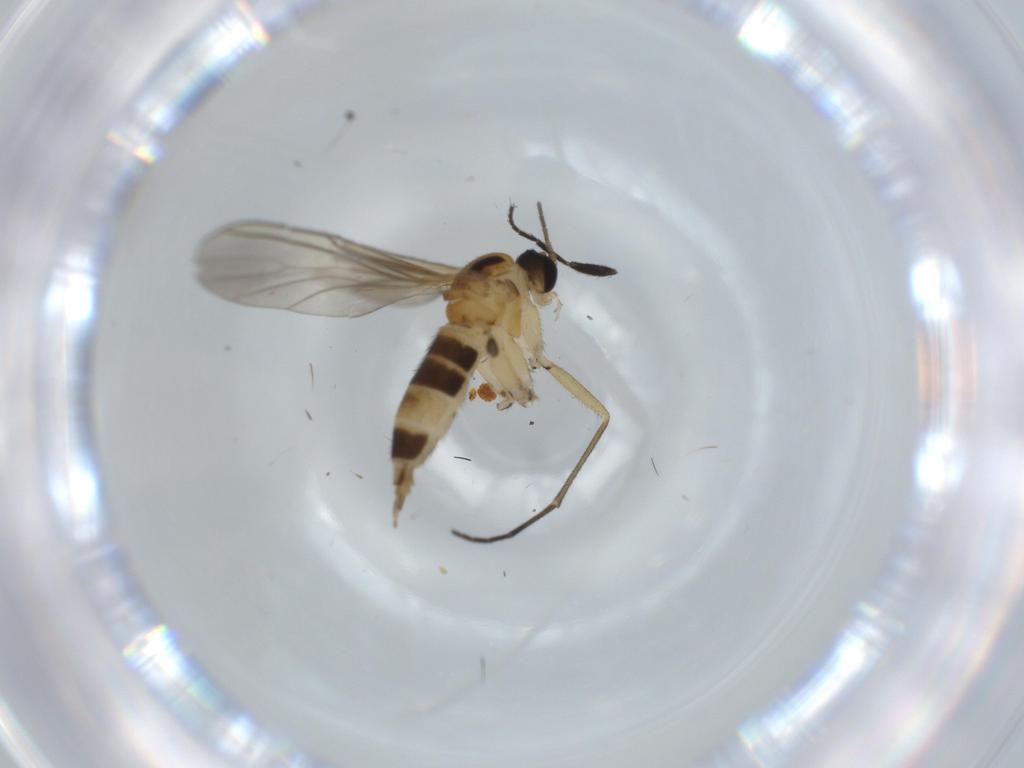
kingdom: Animalia
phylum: Arthropoda
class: Insecta
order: Diptera
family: Dolichopodidae
